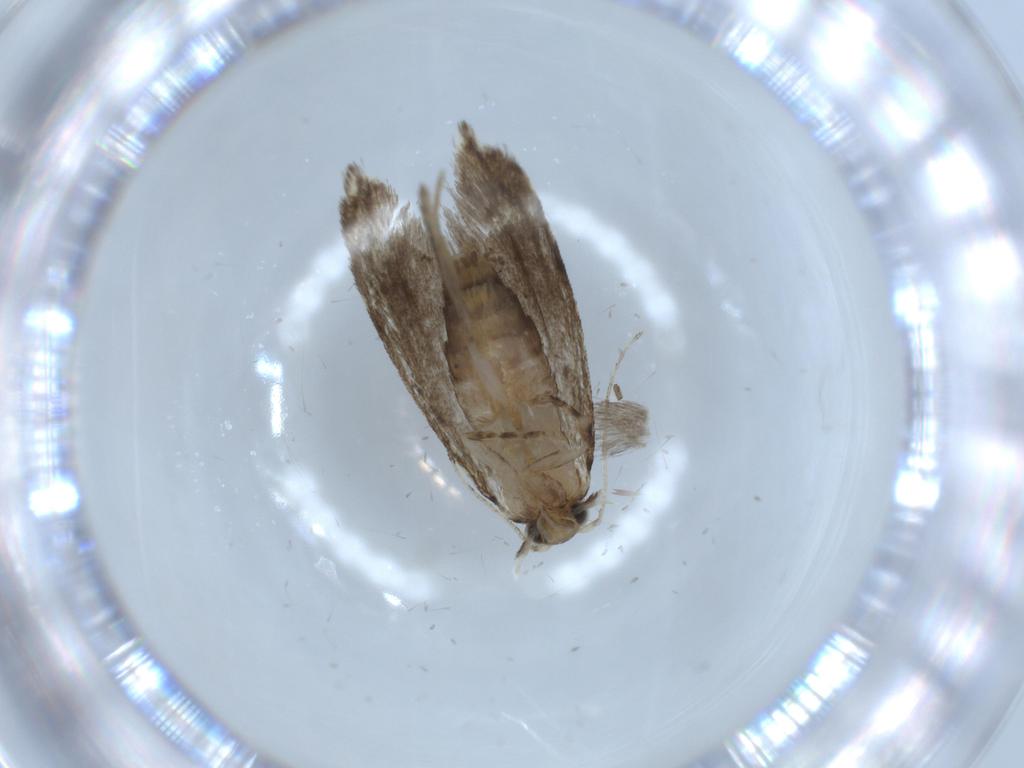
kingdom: Animalia
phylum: Arthropoda
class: Insecta
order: Lepidoptera
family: Tineidae
